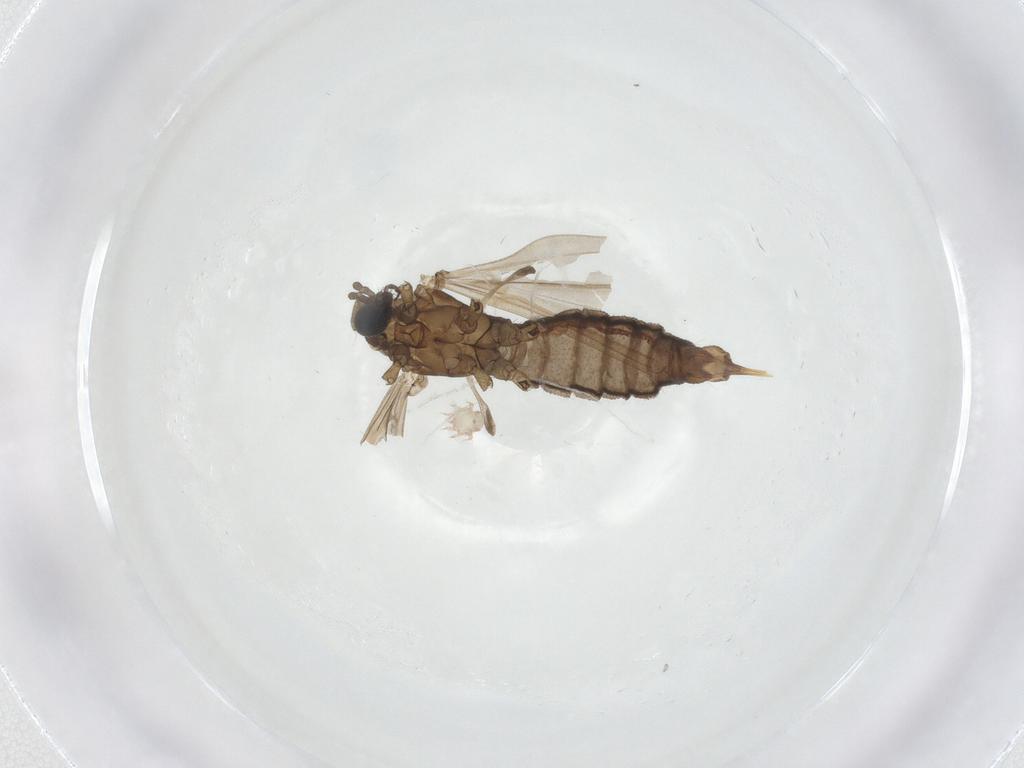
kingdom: Animalia
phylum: Arthropoda
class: Insecta
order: Diptera
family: Limoniidae
